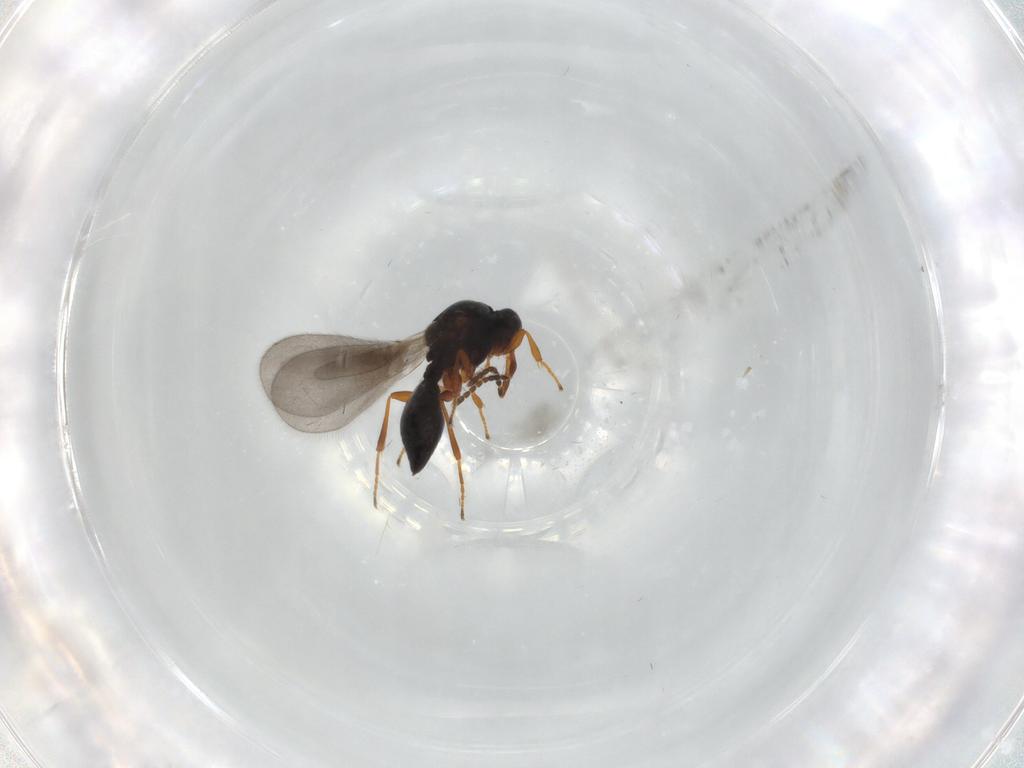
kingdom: Animalia
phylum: Arthropoda
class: Insecta
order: Hymenoptera
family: Platygastridae
